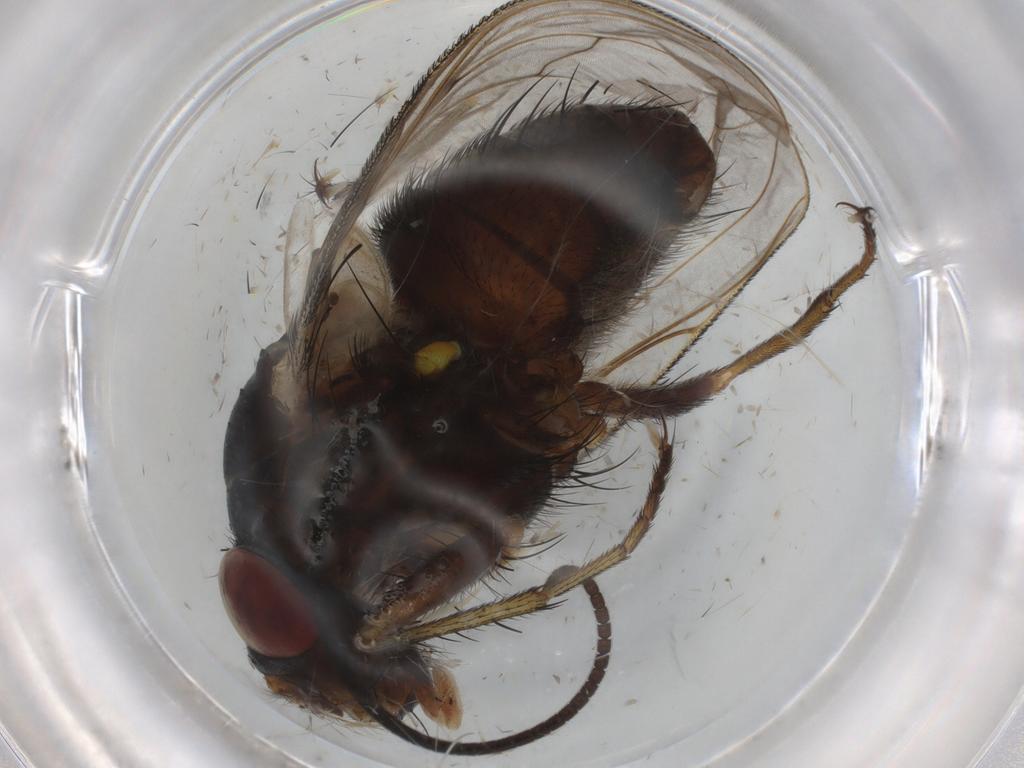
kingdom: Animalia
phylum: Arthropoda
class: Insecta
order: Diptera
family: Tachinidae
